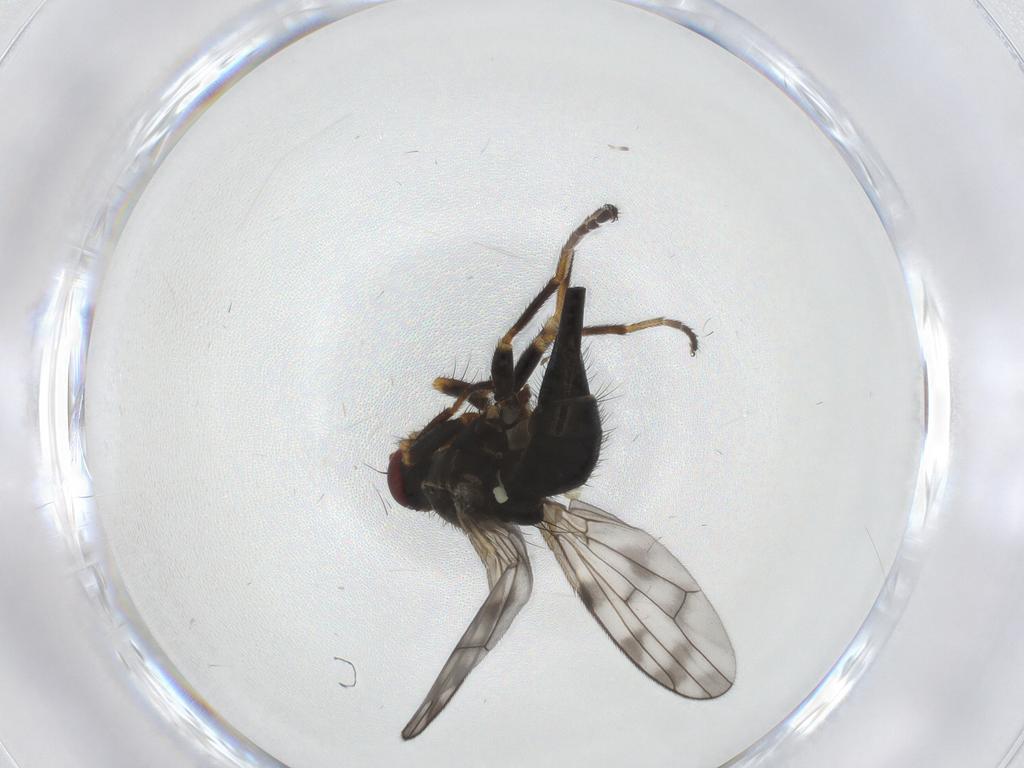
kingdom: Animalia
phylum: Arthropoda
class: Insecta
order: Diptera
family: Tephritidae
